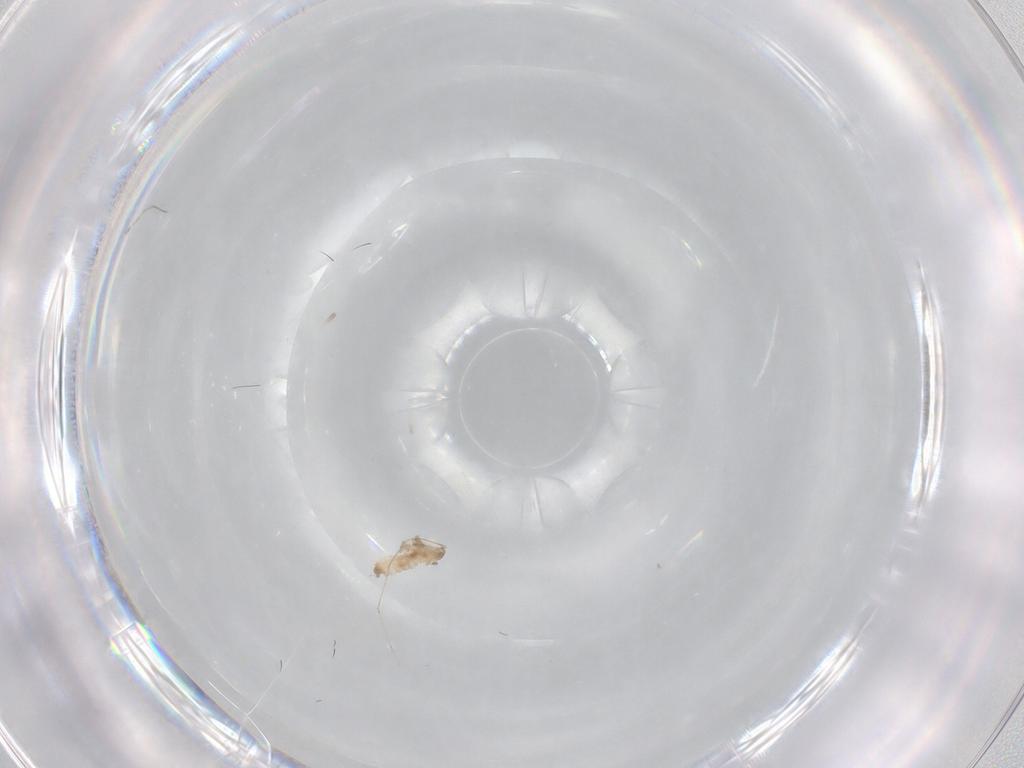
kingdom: Animalia
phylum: Arthropoda
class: Insecta
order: Diptera
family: Cecidomyiidae
